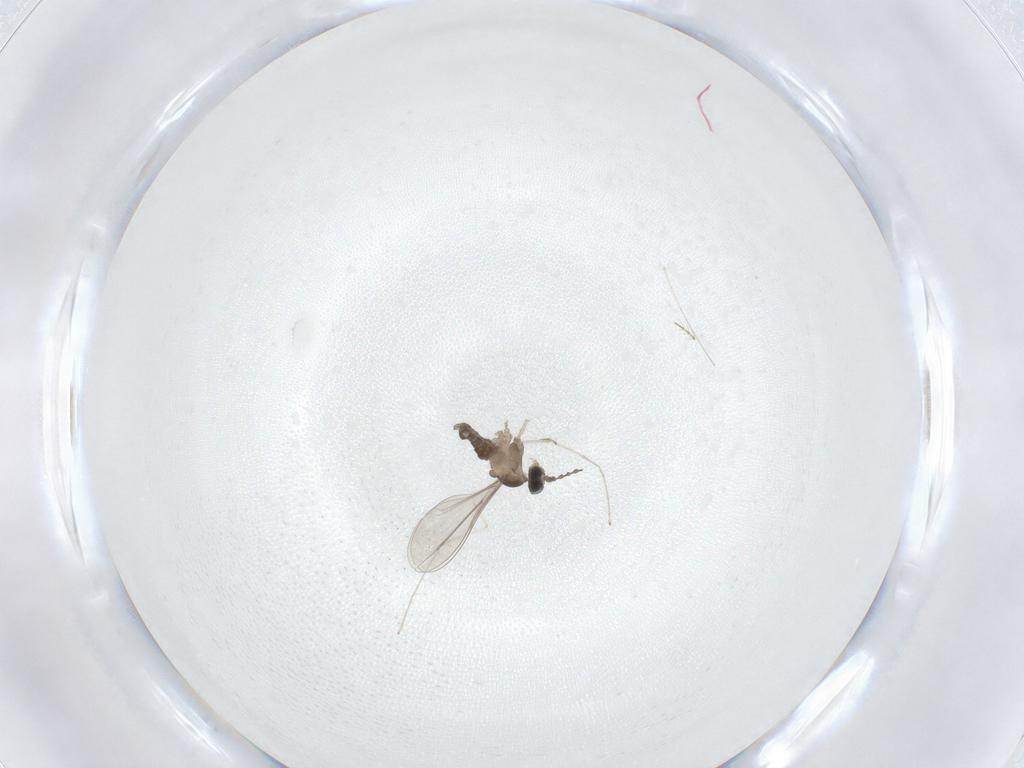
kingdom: Animalia
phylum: Arthropoda
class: Insecta
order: Diptera
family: Cecidomyiidae
